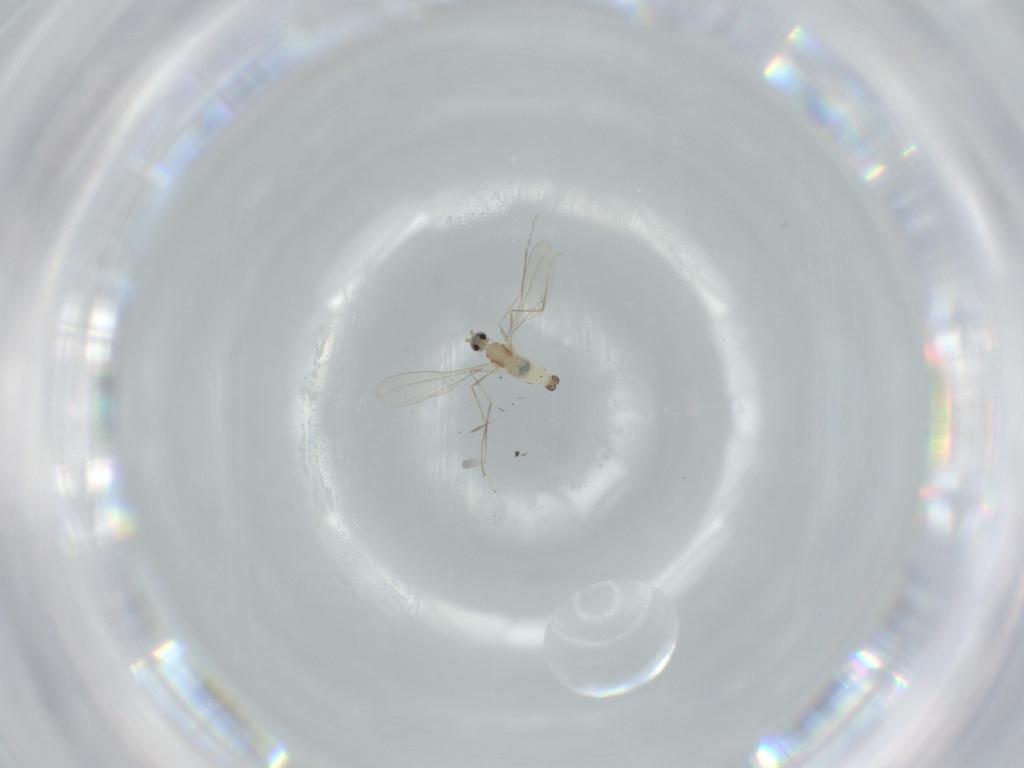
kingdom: Animalia
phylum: Arthropoda
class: Insecta
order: Diptera
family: Cecidomyiidae
